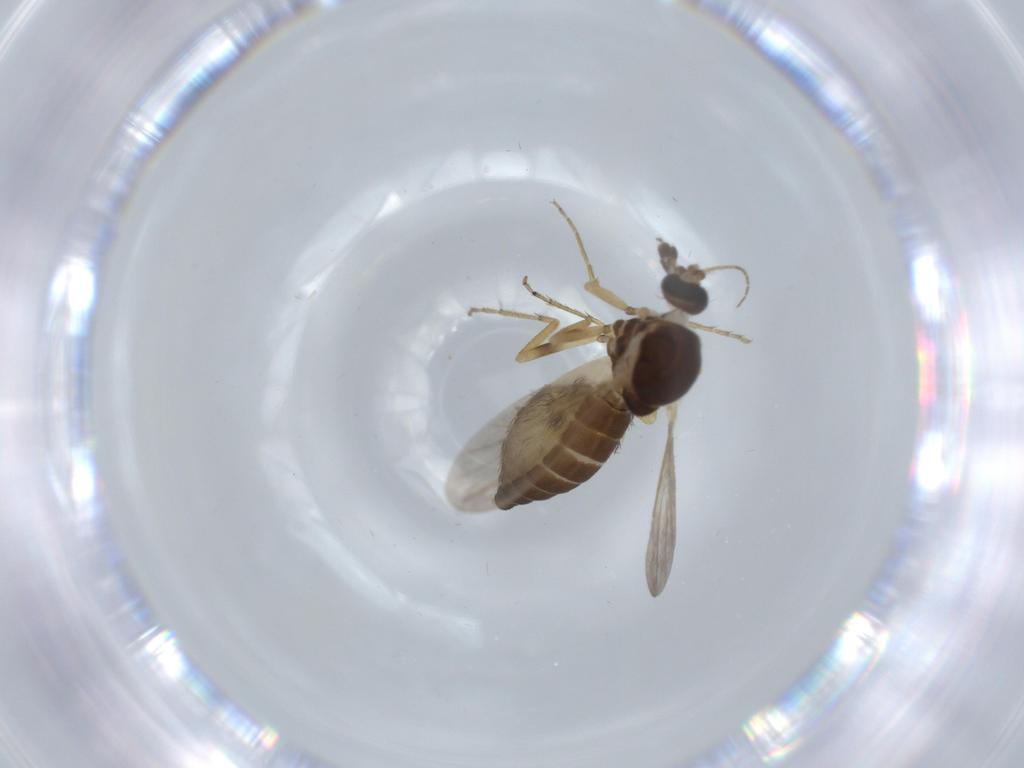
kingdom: Animalia
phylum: Arthropoda
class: Insecta
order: Diptera
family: Ceratopogonidae
